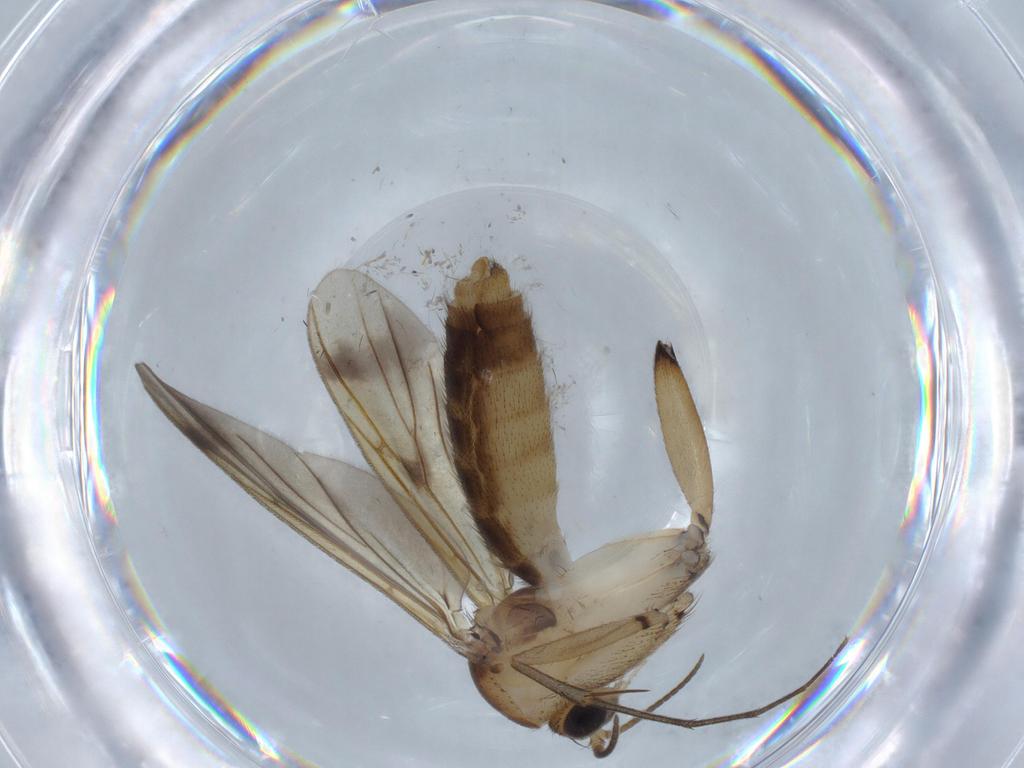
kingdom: Animalia
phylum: Arthropoda
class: Insecta
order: Diptera
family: Mycetophilidae
